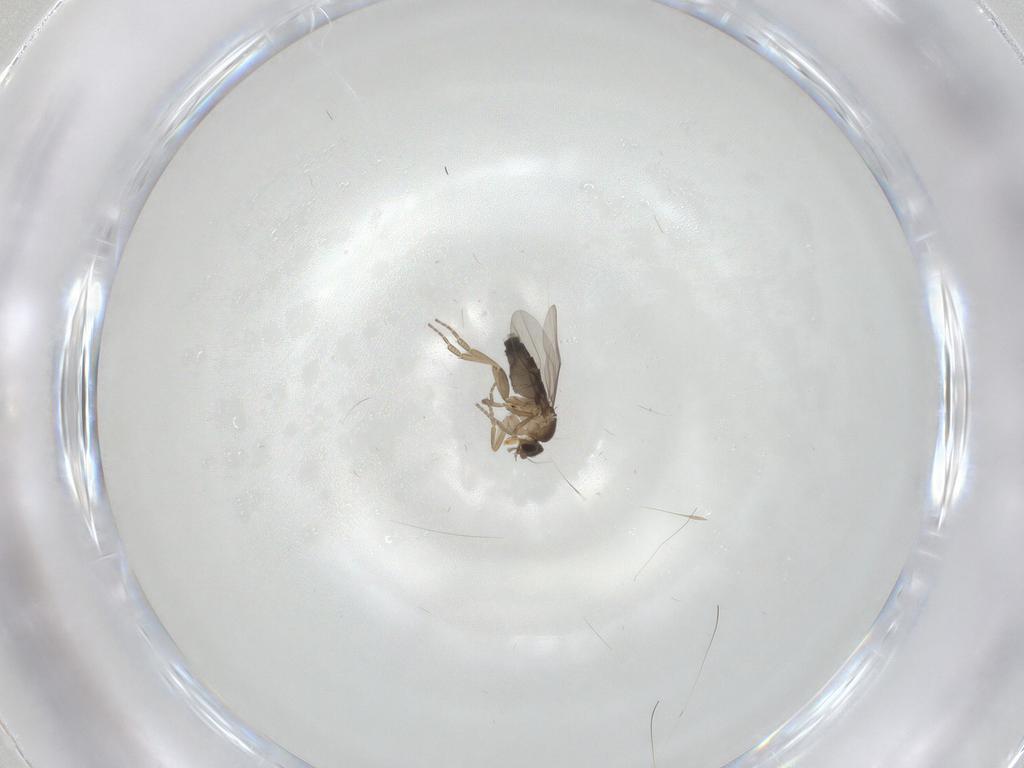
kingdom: Animalia
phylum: Arthropoda
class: Insecta
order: Diptera
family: Phoridae
